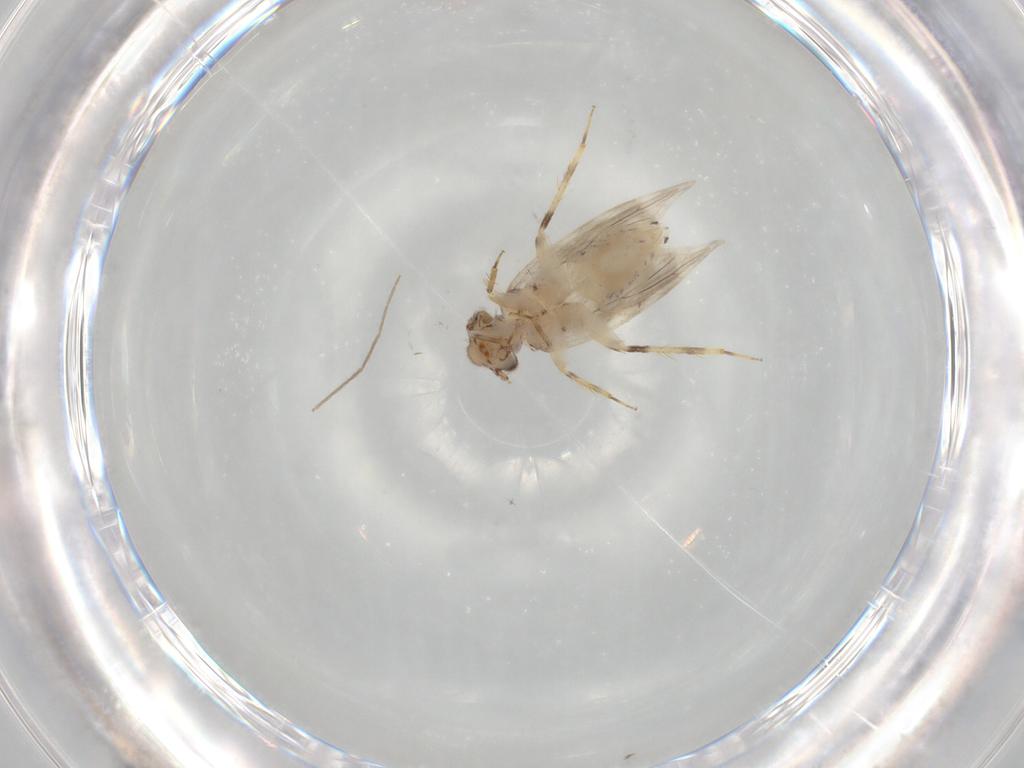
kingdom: Animalia
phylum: Arthropoda
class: Insecta
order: Psocodea
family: Lepidopsocidae
